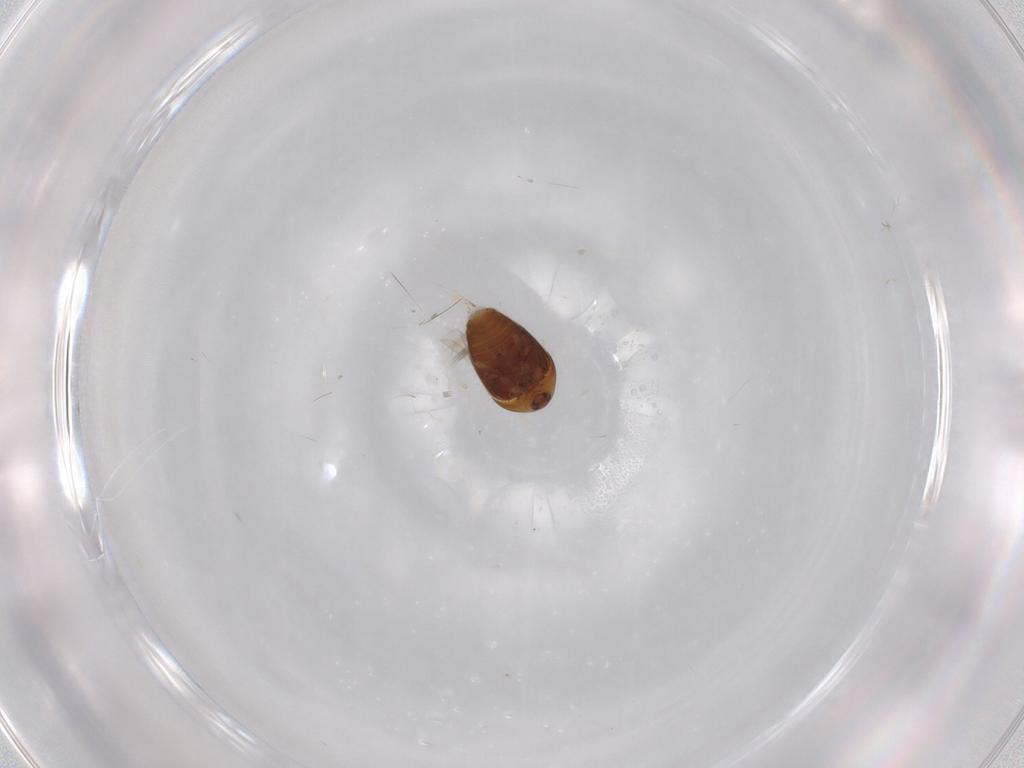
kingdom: Animalia
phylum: Arthropoda
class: Insecta
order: Coleoptera
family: Corylophidae
